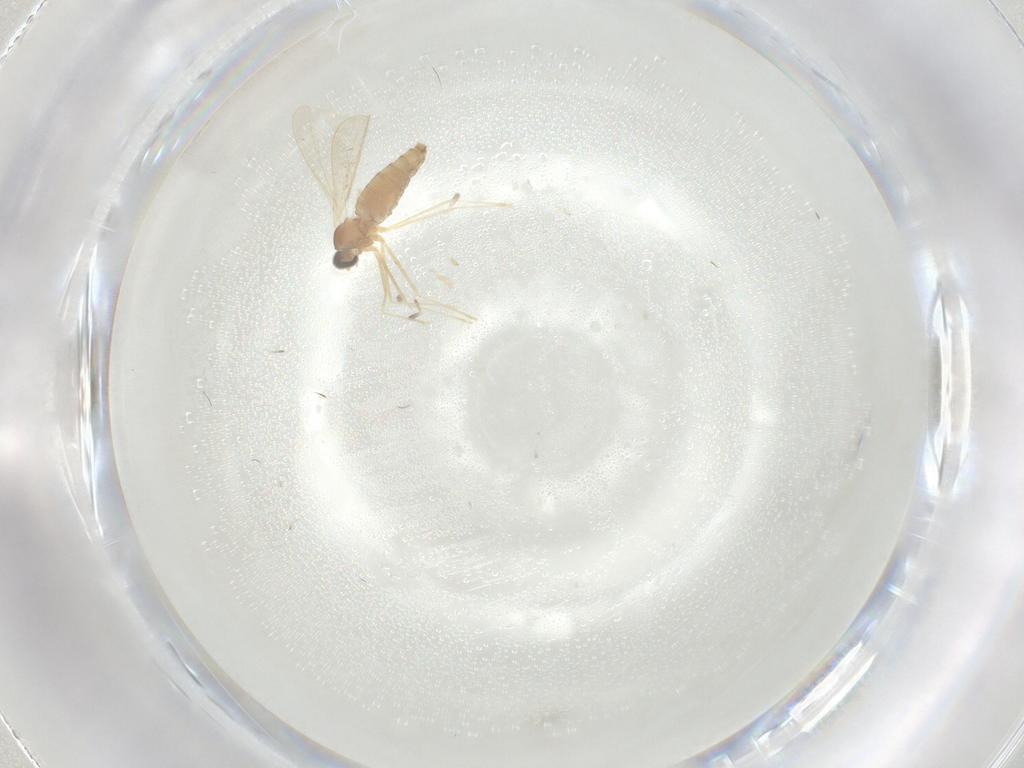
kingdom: Animalia
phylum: Arthropoda
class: Insecta
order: Diptera
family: Cecidomyiidae
